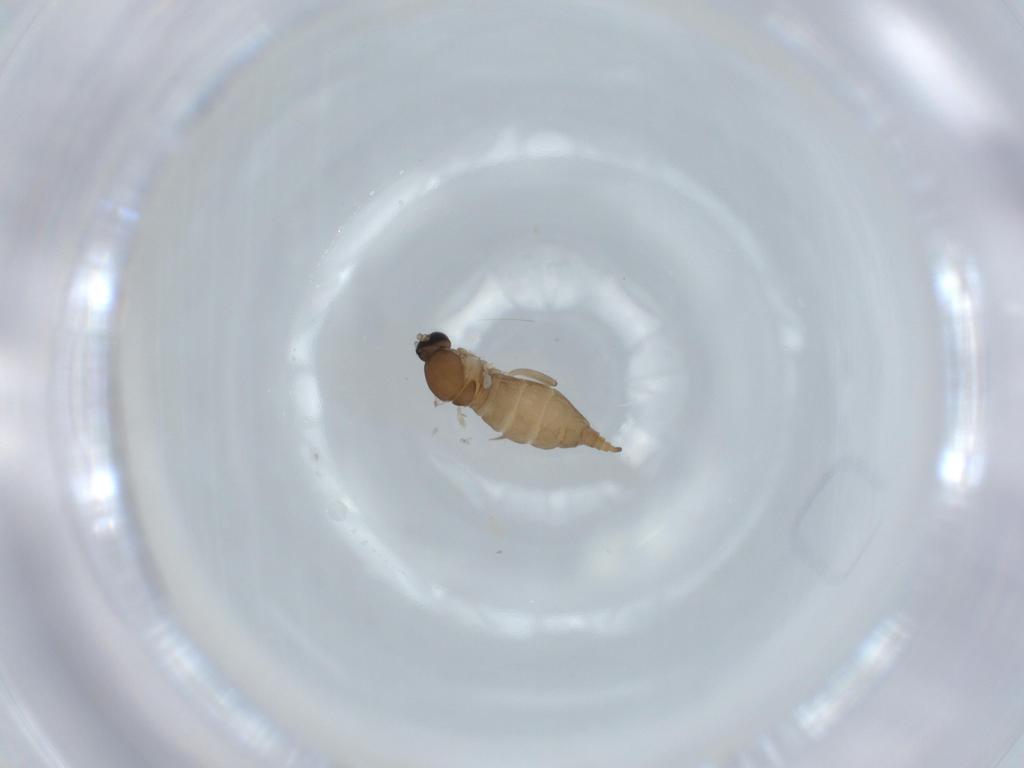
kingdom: Animalia
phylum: Arthropoda
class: Insecta
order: Diptera
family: Cecidomyiidae
